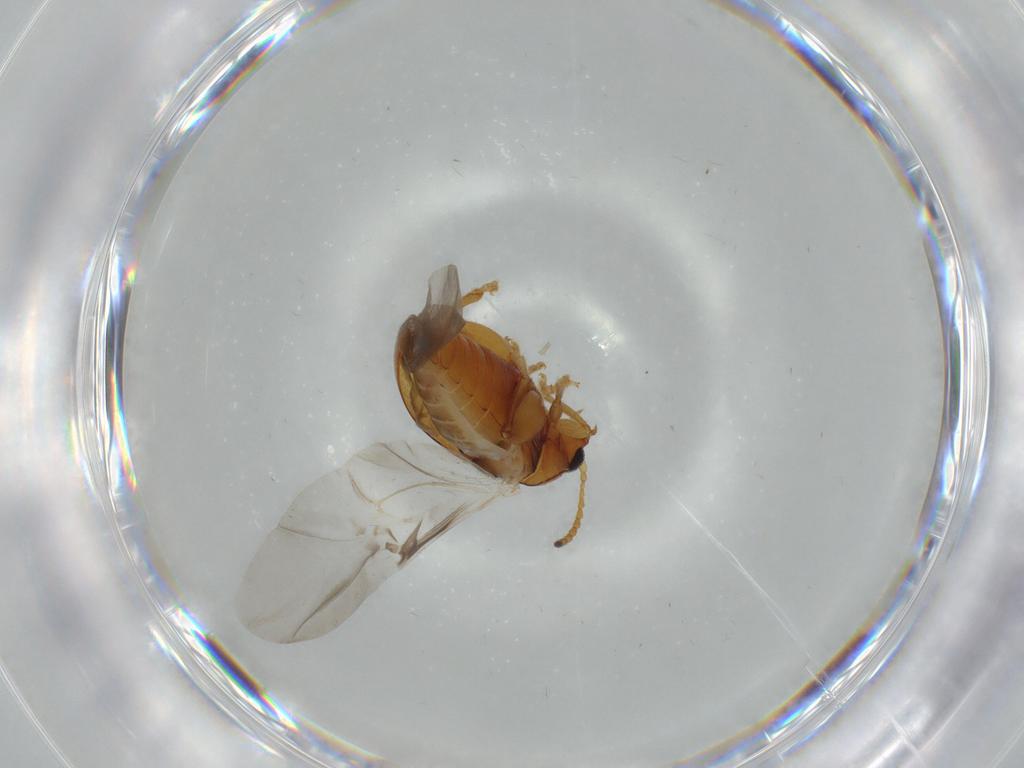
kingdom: Animalia
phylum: Arthropoda
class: Insecta
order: Coleoptera
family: Chrysomelidae
